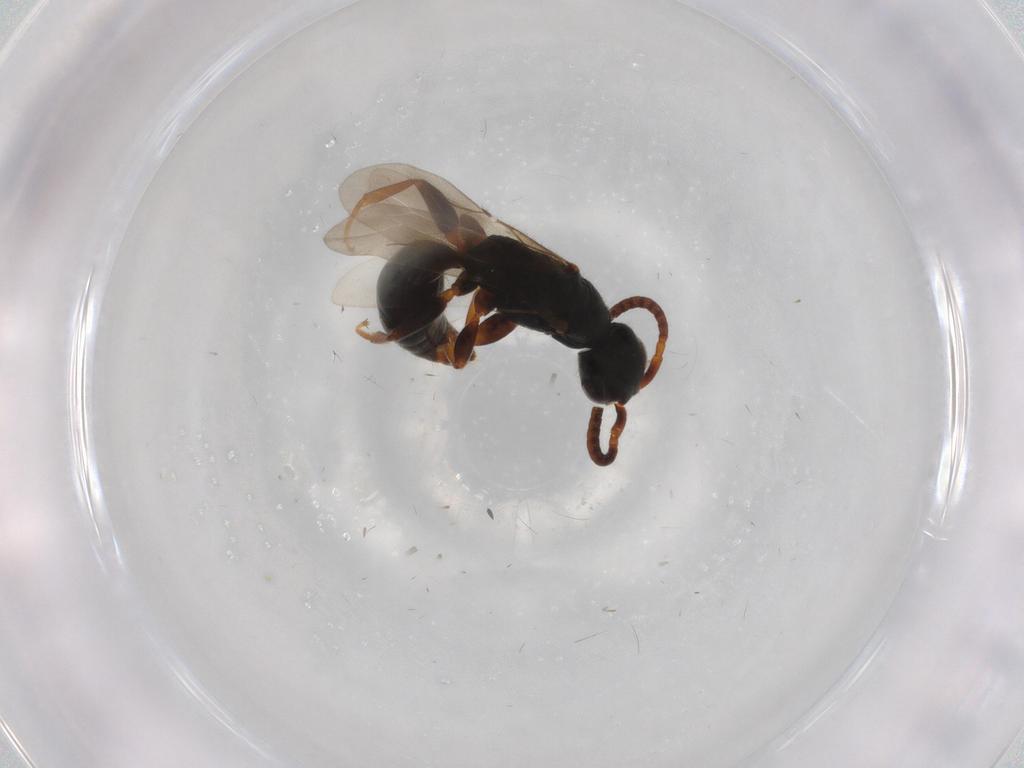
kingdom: Animalia
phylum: Arthropoda
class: Insecta
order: Hymenoptera
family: Bethylidae
